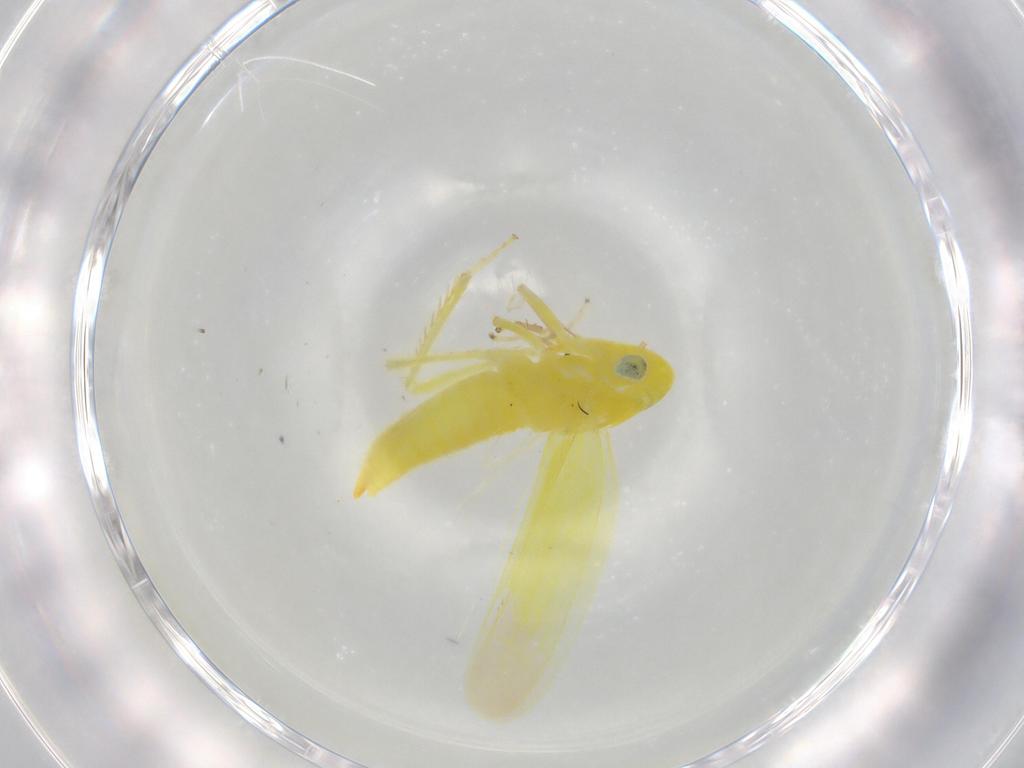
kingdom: Animalia
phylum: Arthropoda
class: Insecta
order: Hemiptera
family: Cicadellidae
